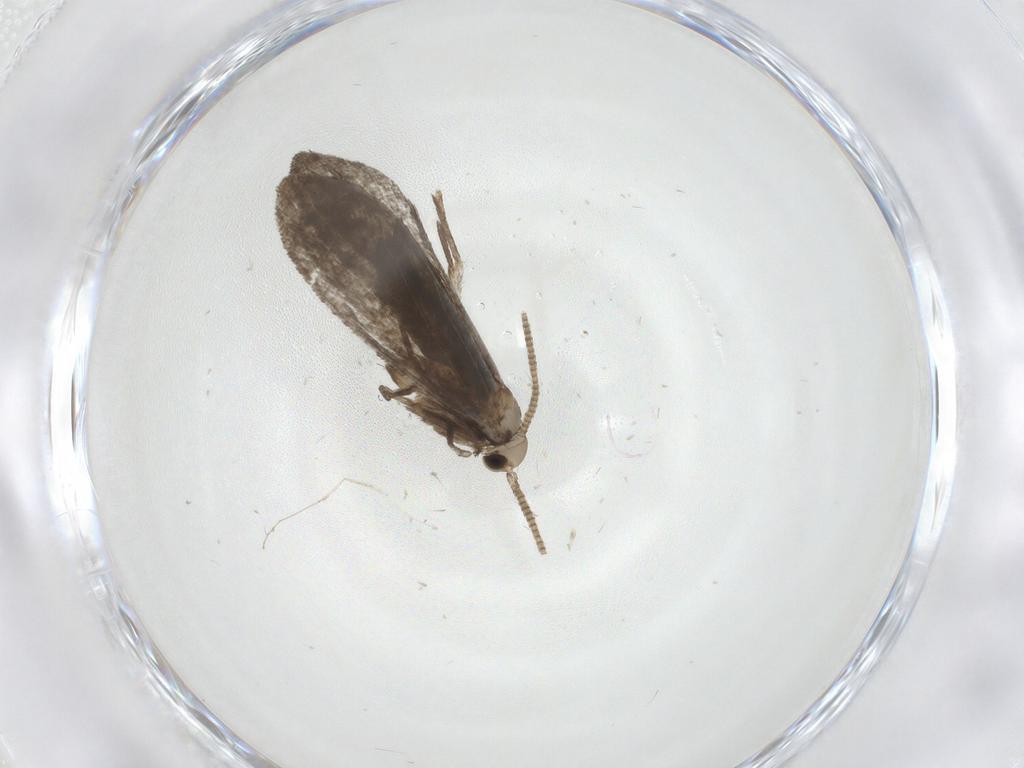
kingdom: Animalia
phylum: Arthropoda
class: Insecta
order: Lepidoptera
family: Nymphalidae
